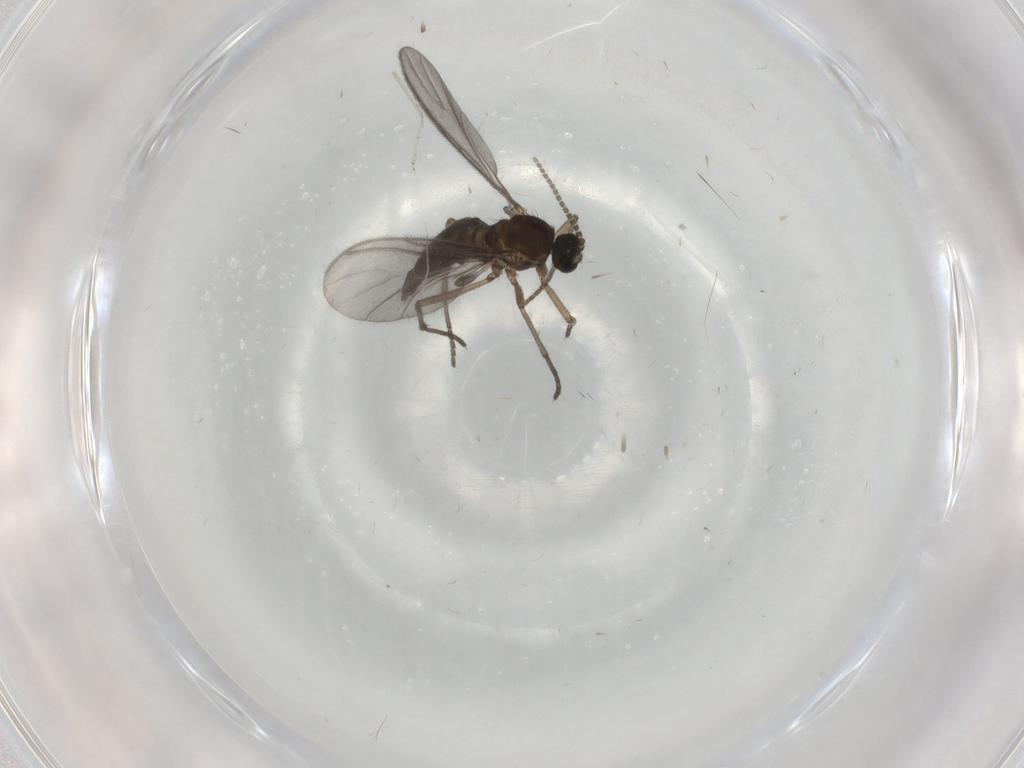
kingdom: Animalia
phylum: Arthropoda
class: Insecta
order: Diptera
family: Sciaridae
